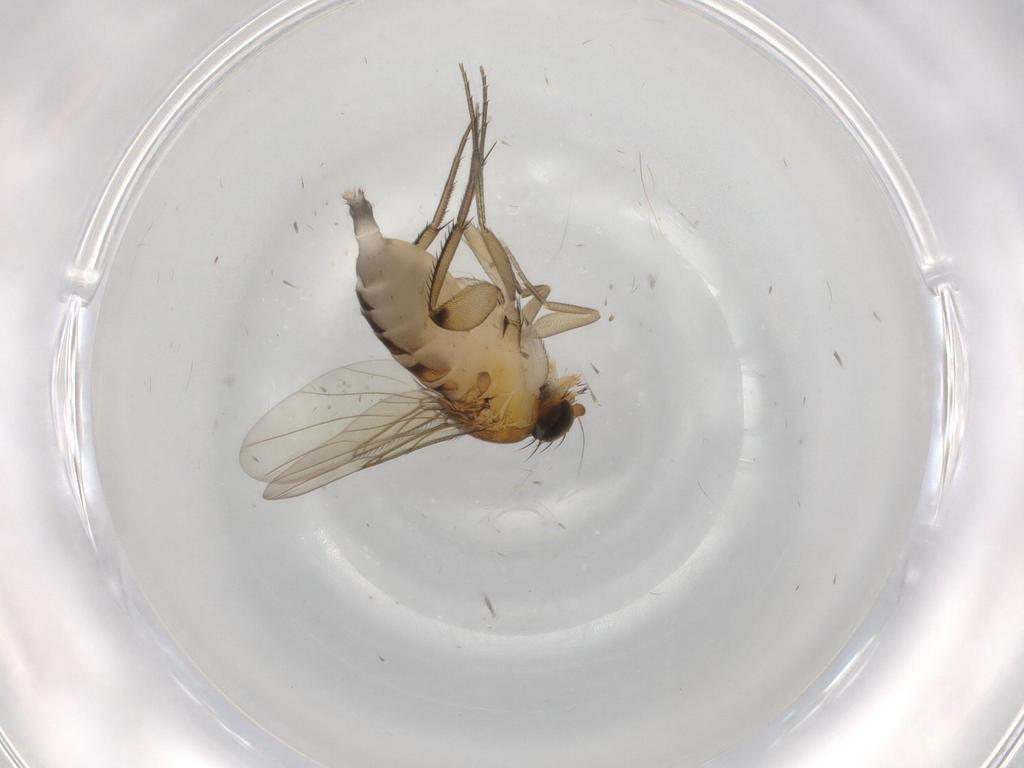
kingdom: Animalia
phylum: Arthropoda
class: Insecta
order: Diptera
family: Phoridae
